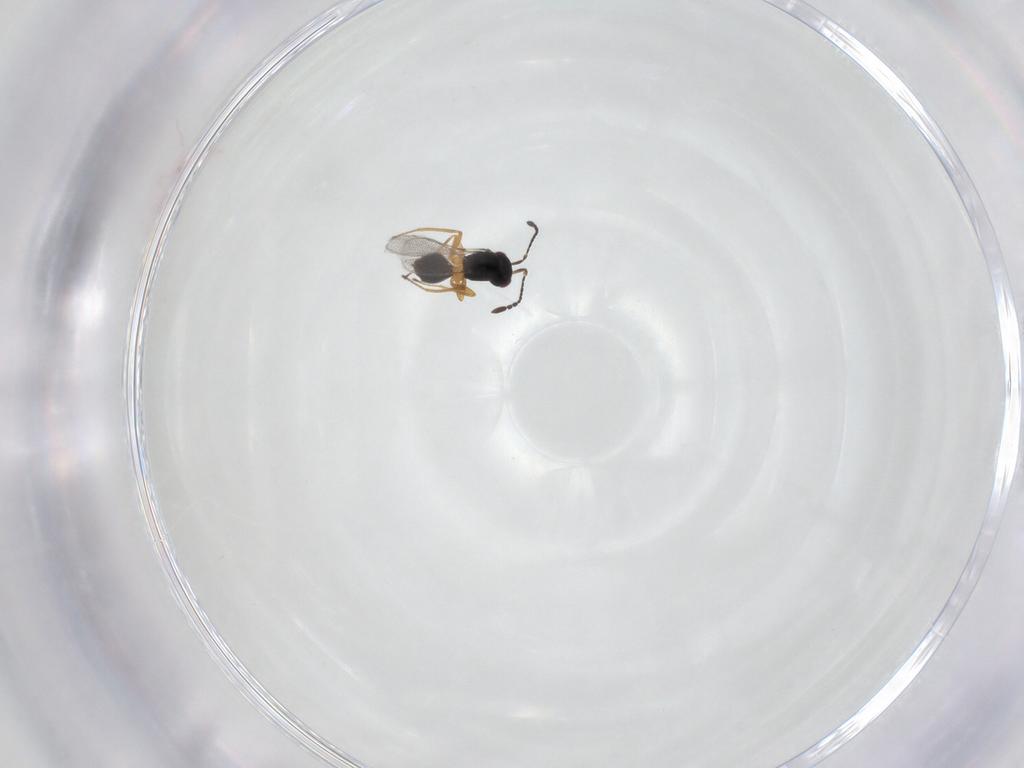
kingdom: Animalia
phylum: Arthropoda
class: Insecta
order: Hymenoptera
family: Mymaridae
